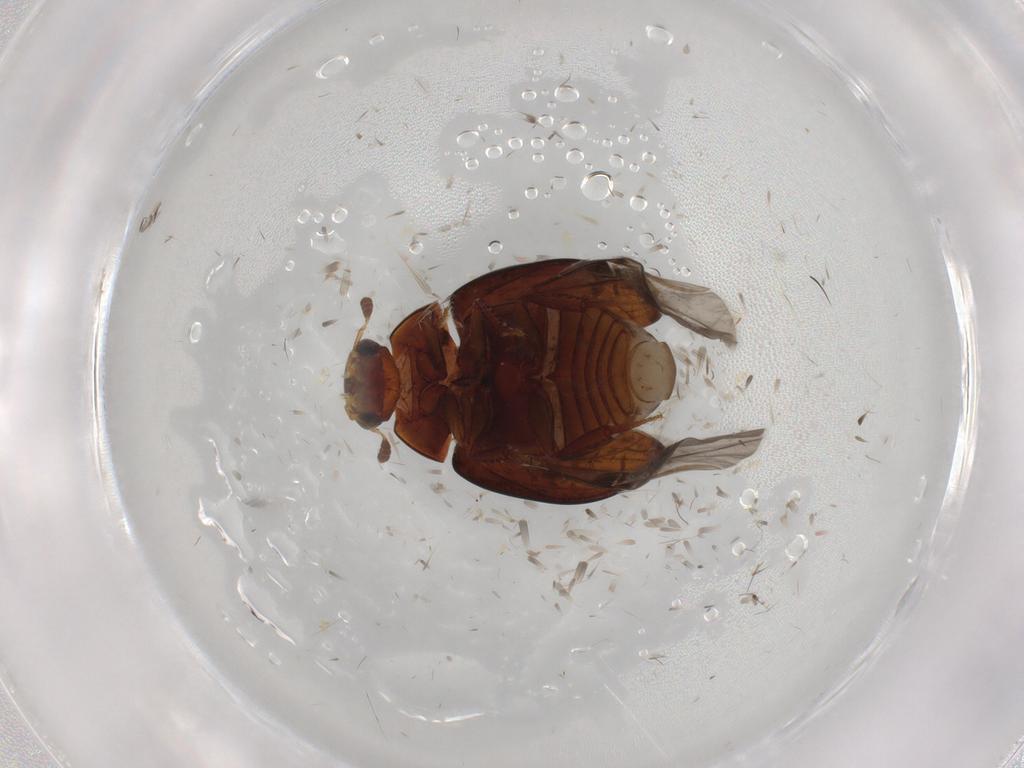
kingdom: Animalia
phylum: Arthropoda
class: Insecta
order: Coleoptera
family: Hydrophilidae
